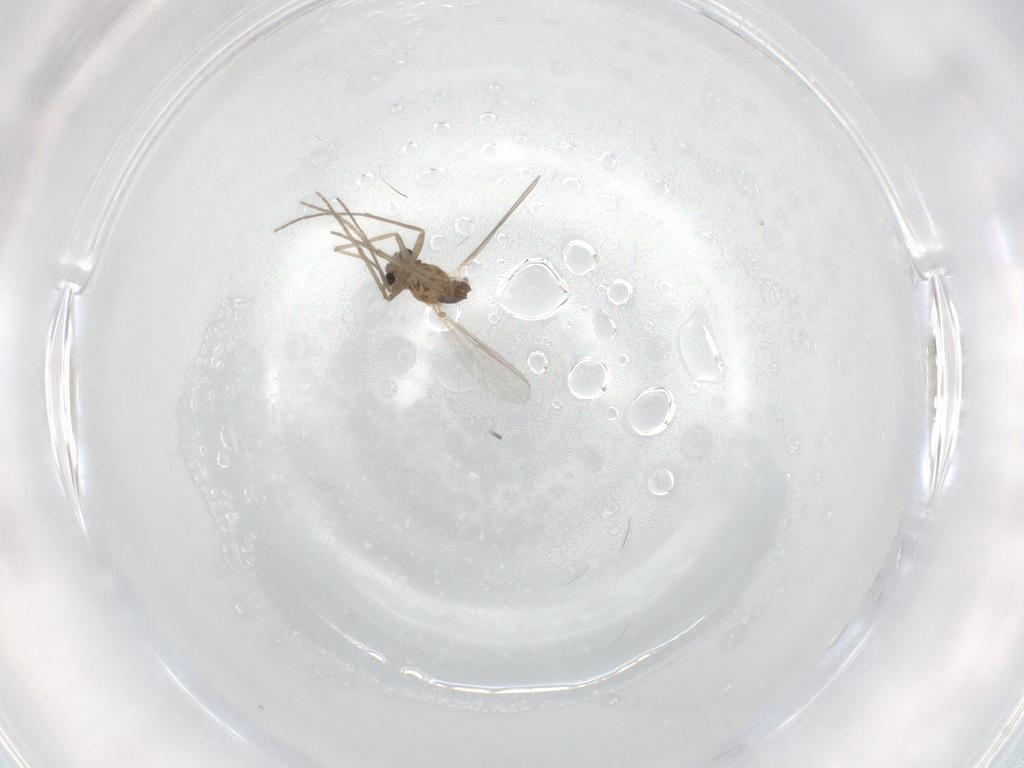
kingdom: Animalia
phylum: Arthropoda
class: Insecta
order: Diptera
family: Chironomidae
